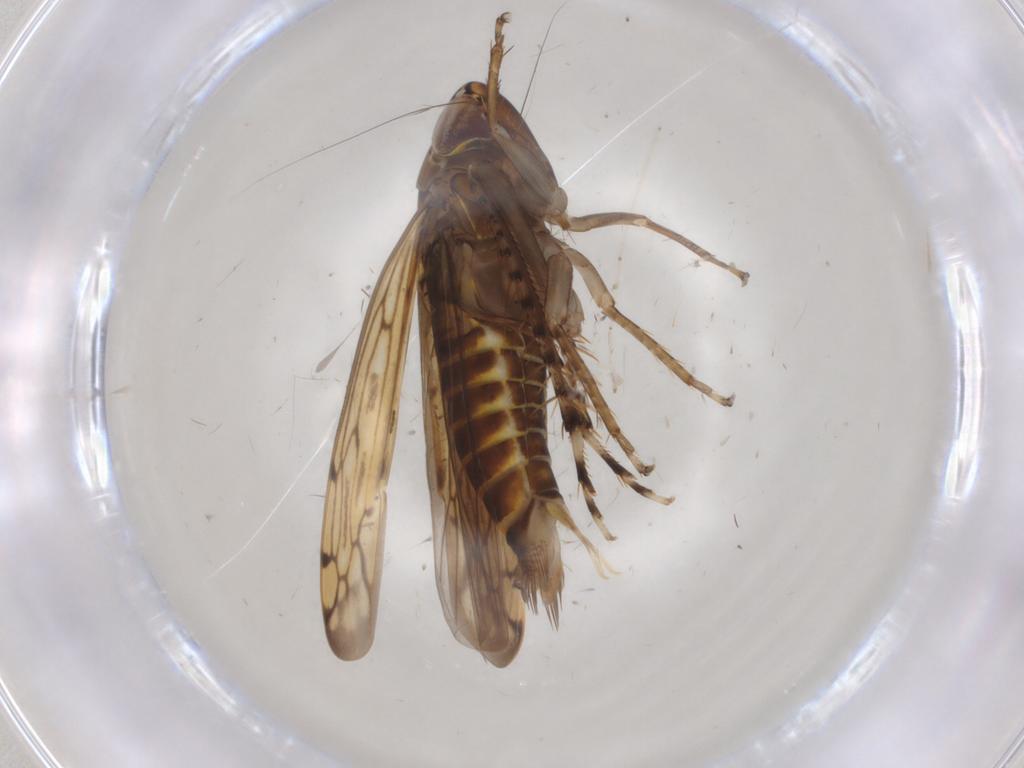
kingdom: Animalia
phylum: Arthropoda
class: Insecta
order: Hemiptera
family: Cicadellidae
